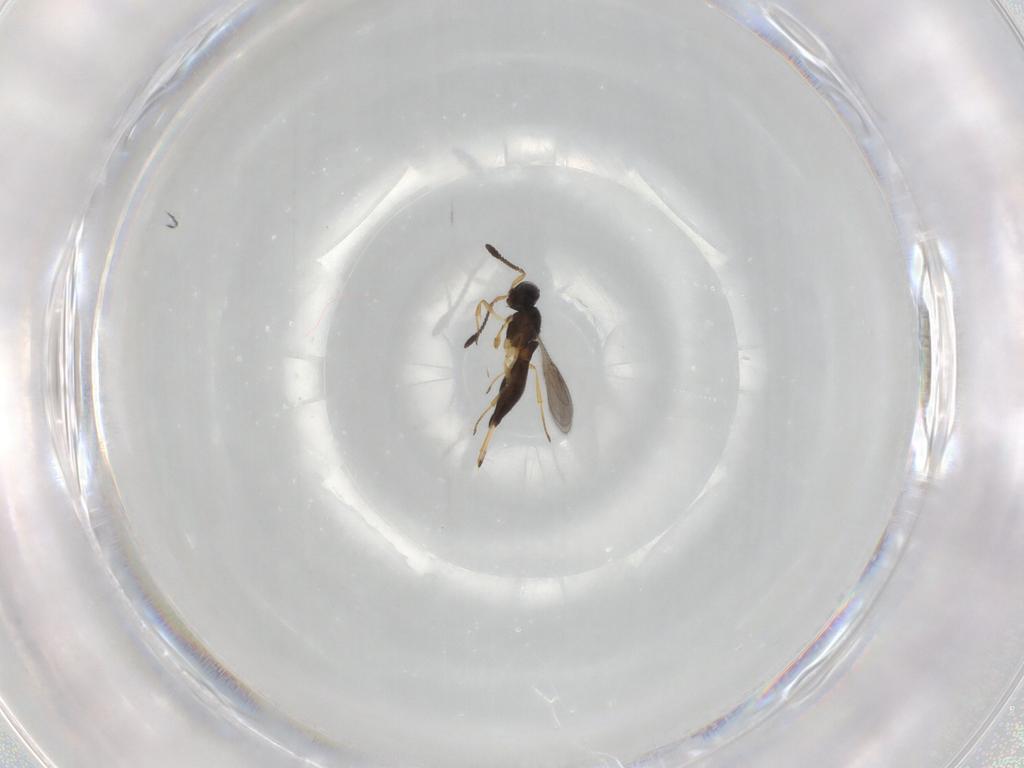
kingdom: Animalia
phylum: Arthropoda
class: Insecta
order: Hymenoptera
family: Scelionidae
